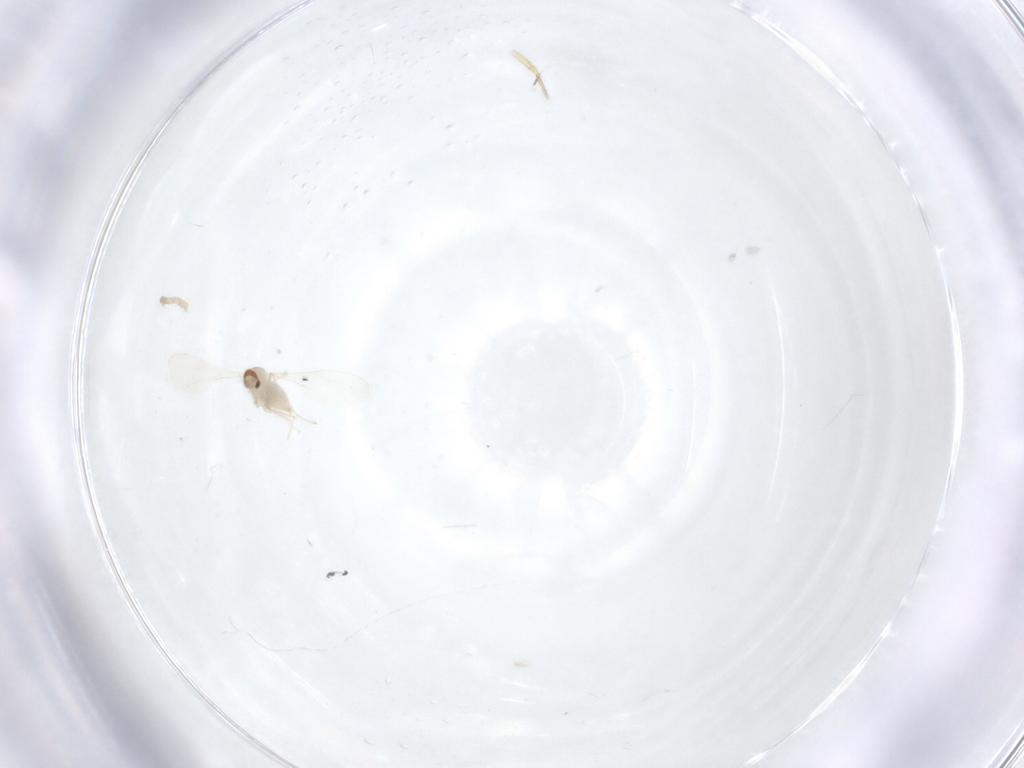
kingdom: Animalia
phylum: Arthropoda
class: Insecta
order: Diptera
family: Cecidomyiidae
